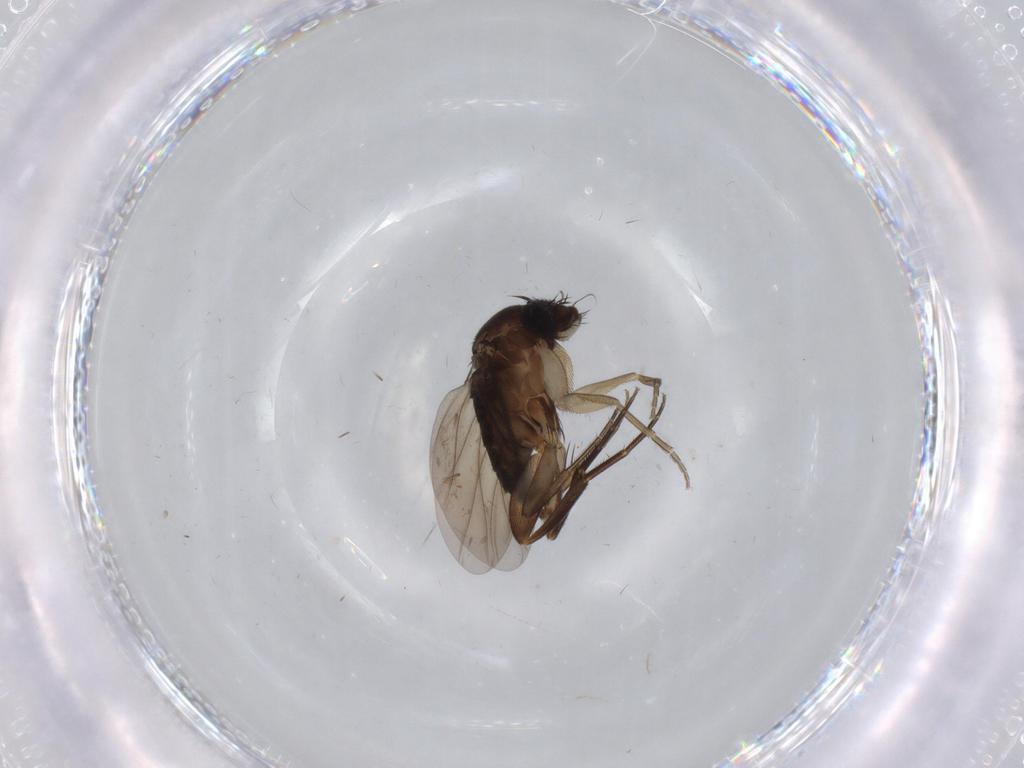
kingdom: Animalia
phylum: Arthropoda
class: Insecta
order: Diptera
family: Phoridae
